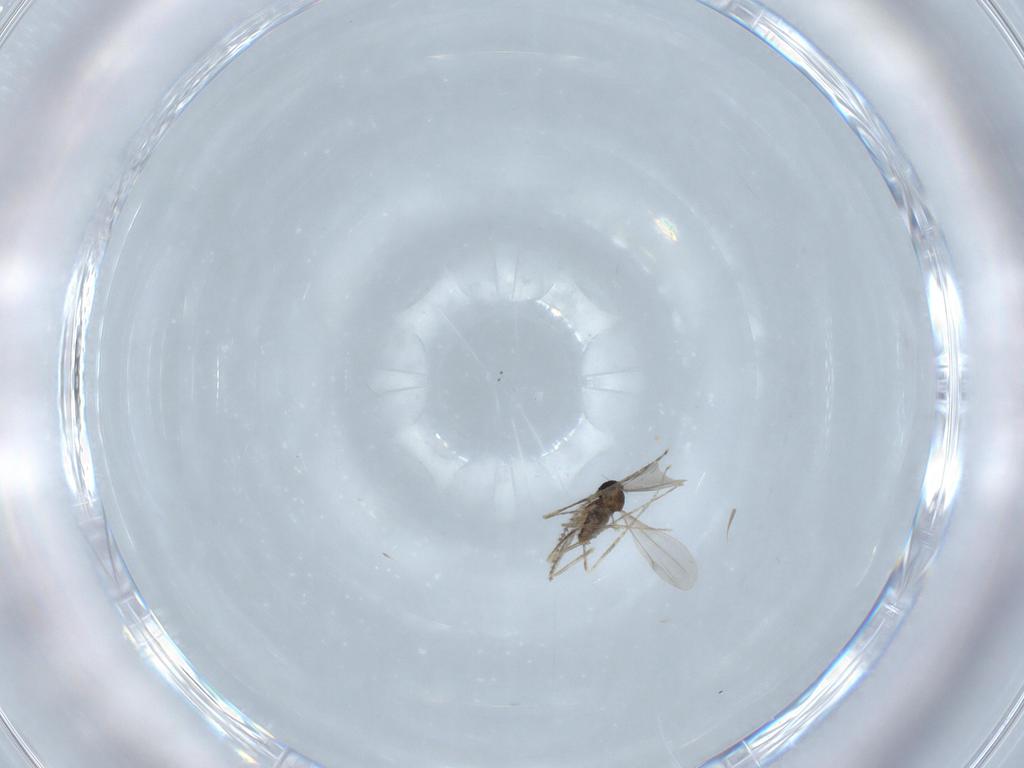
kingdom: Animalia
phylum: Arthropoda
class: Insecta
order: Diptera
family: Cecidomyiidae
